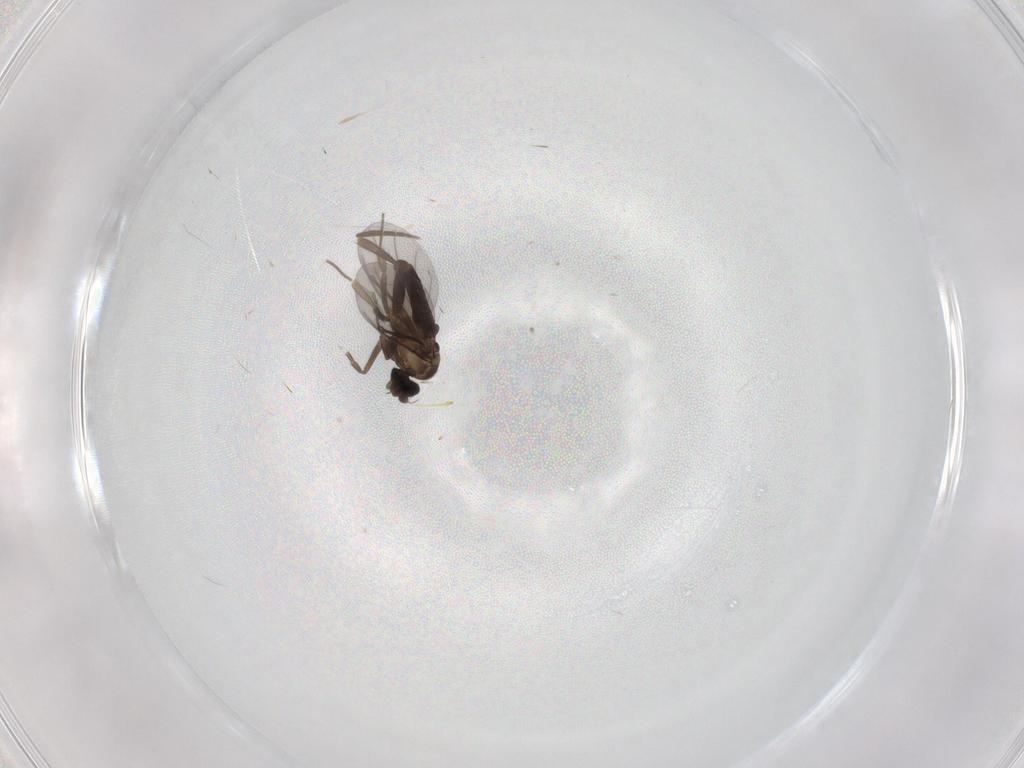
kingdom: Animalia
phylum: Arthropoda
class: Insecta
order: Diptera
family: Phoridae
